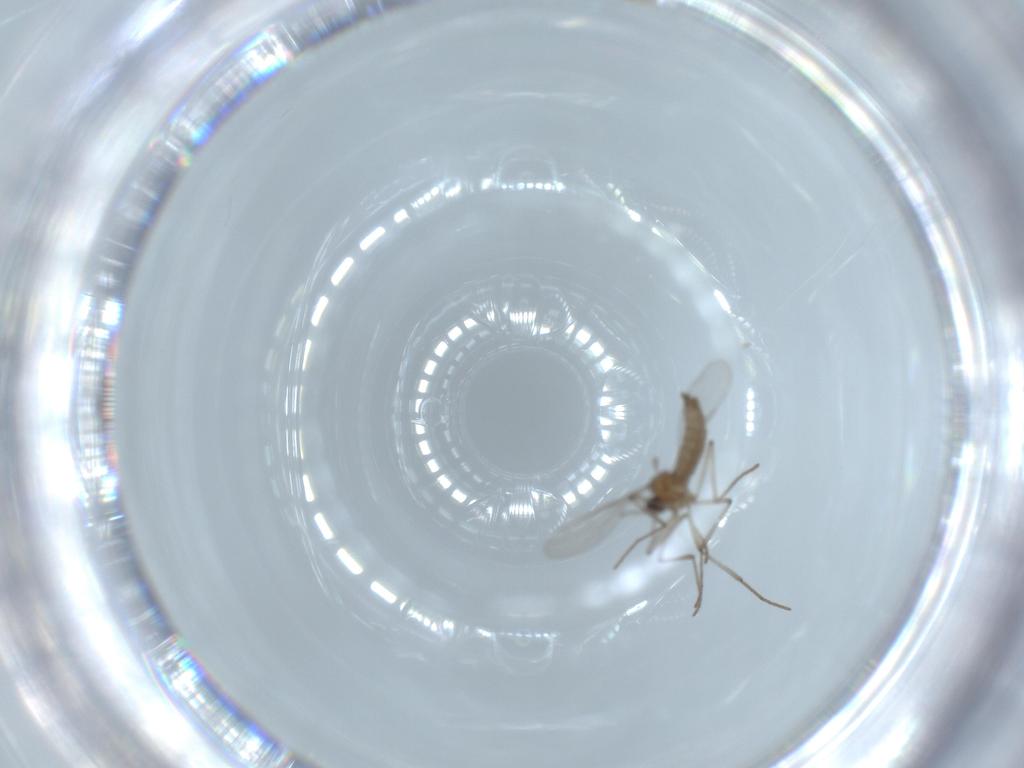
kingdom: Animalia
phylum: Arthropoda
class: Insecta
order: Diptera
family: Cecidomyiidae
